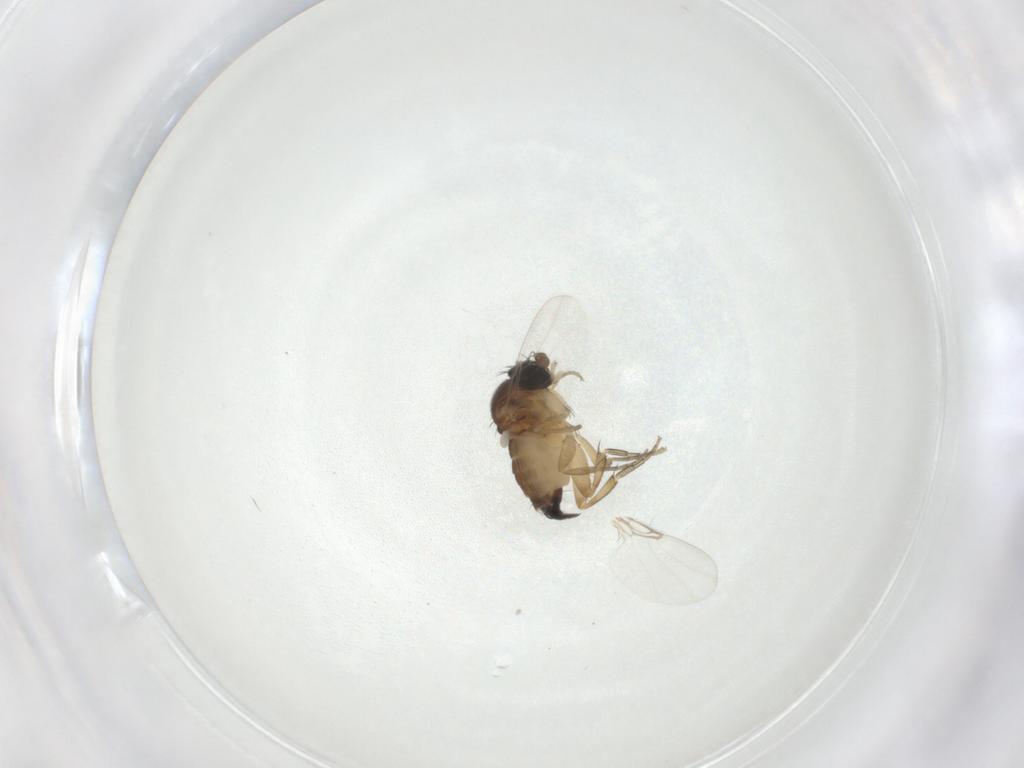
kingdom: Animalia
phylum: Arthropoda
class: Insecta
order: Diptera
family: Phoridae
